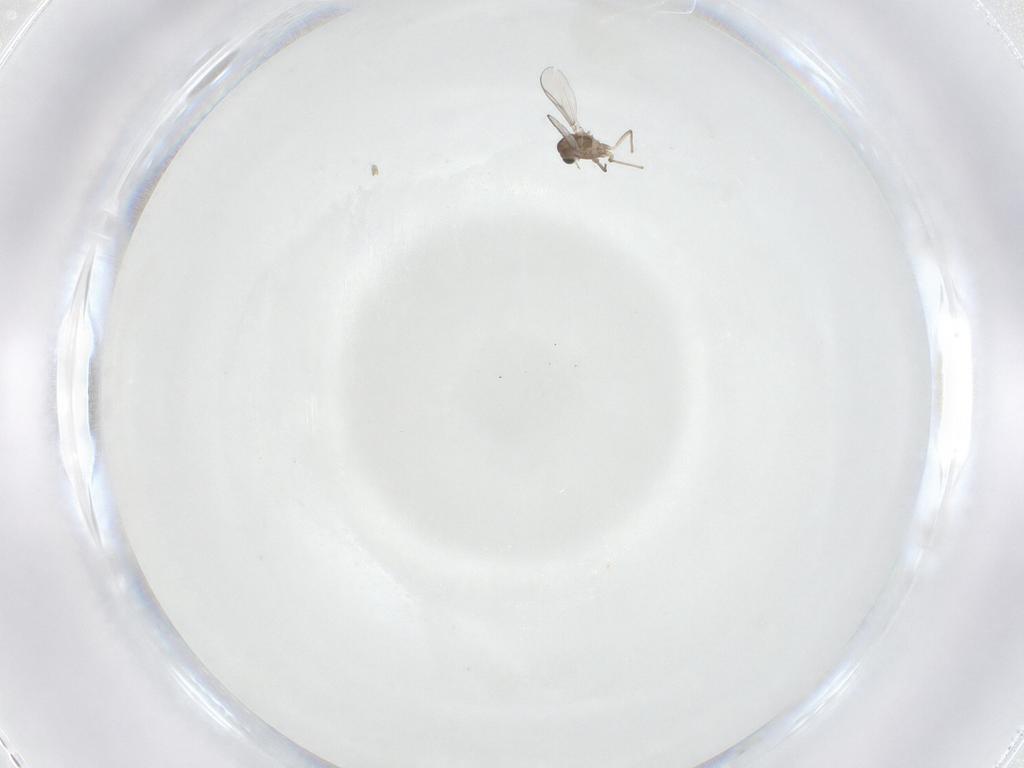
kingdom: Animalia
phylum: Arthropoda
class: Insecta
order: Diptera
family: Chironomidae
